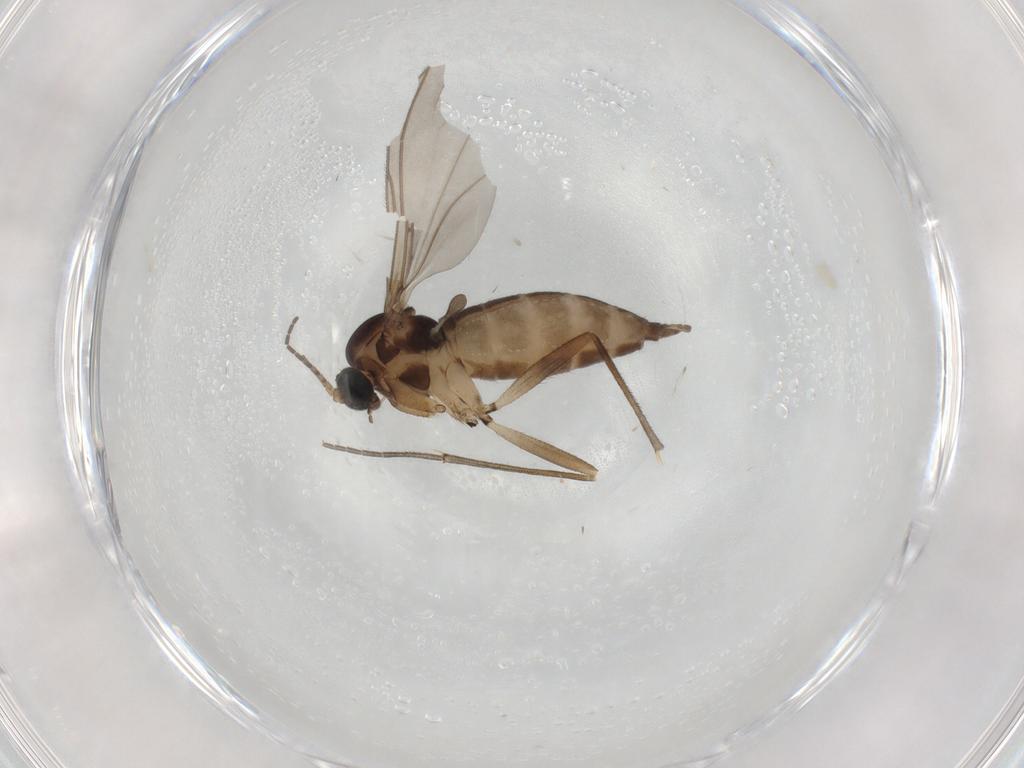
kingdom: Animalia
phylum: Arthropoda
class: Insecta
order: Diptera
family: Sciaridae
